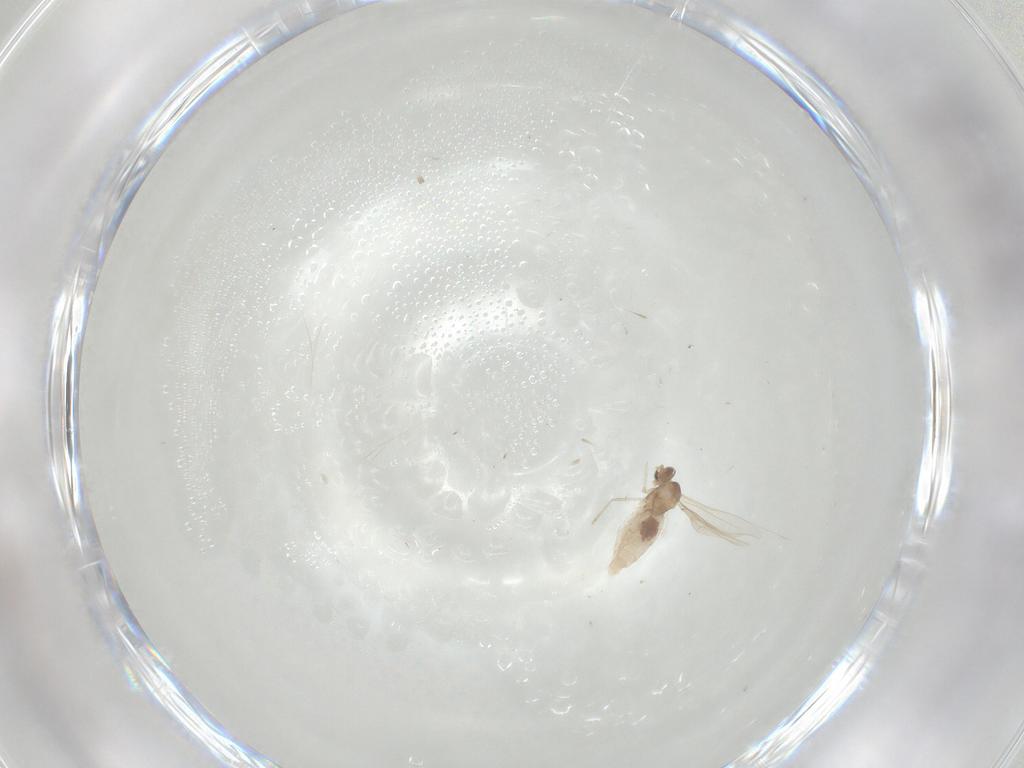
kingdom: Animalia
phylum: Arthropoda
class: Insecta
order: Diptera
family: Cecidomyiidae
